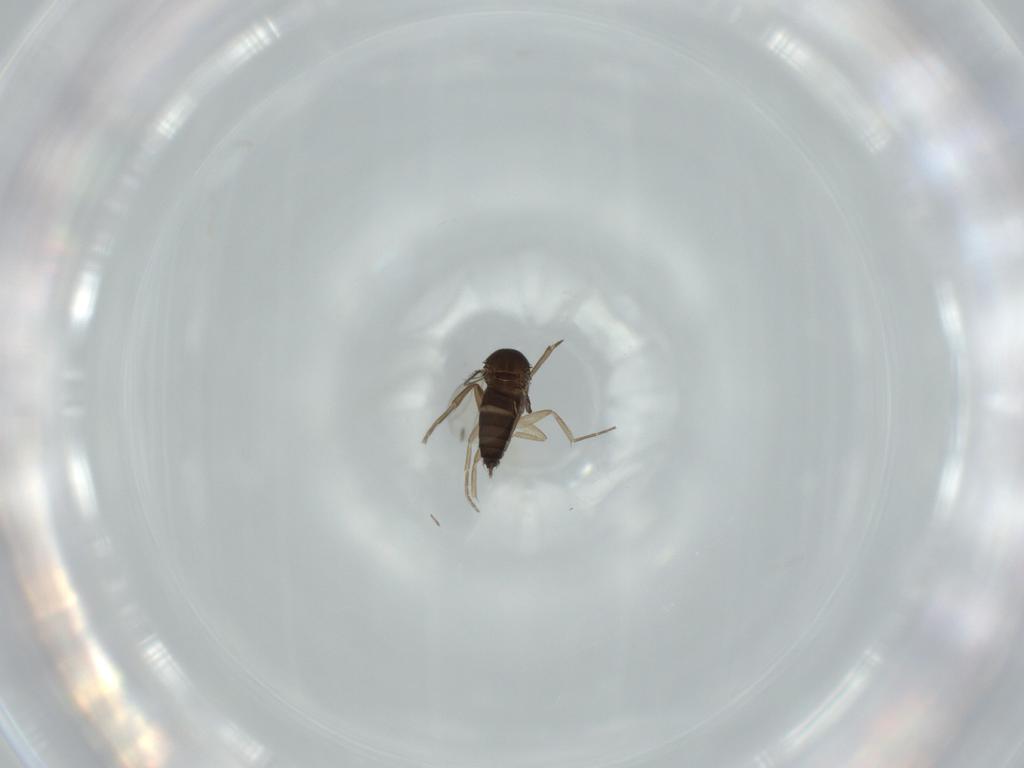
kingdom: Animalia
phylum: Arthropoda
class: Insecta
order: Diptera
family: Phoridae
